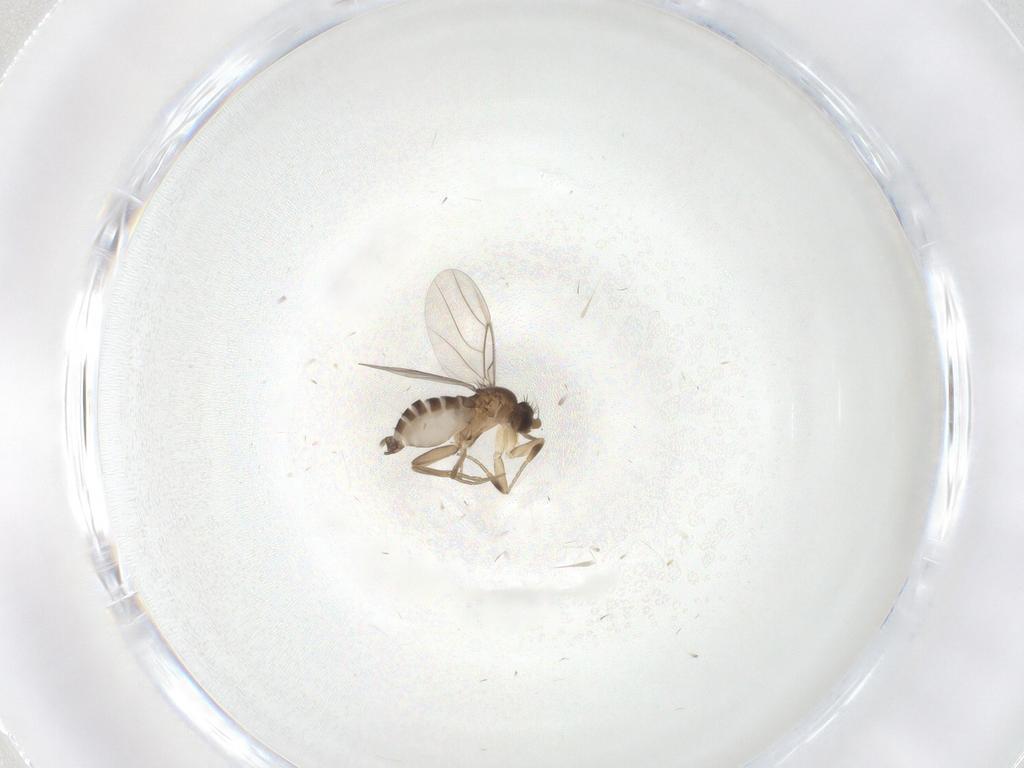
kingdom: Animalia
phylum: Arthropoda
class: Insecta
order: Diptera
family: Phoridae
